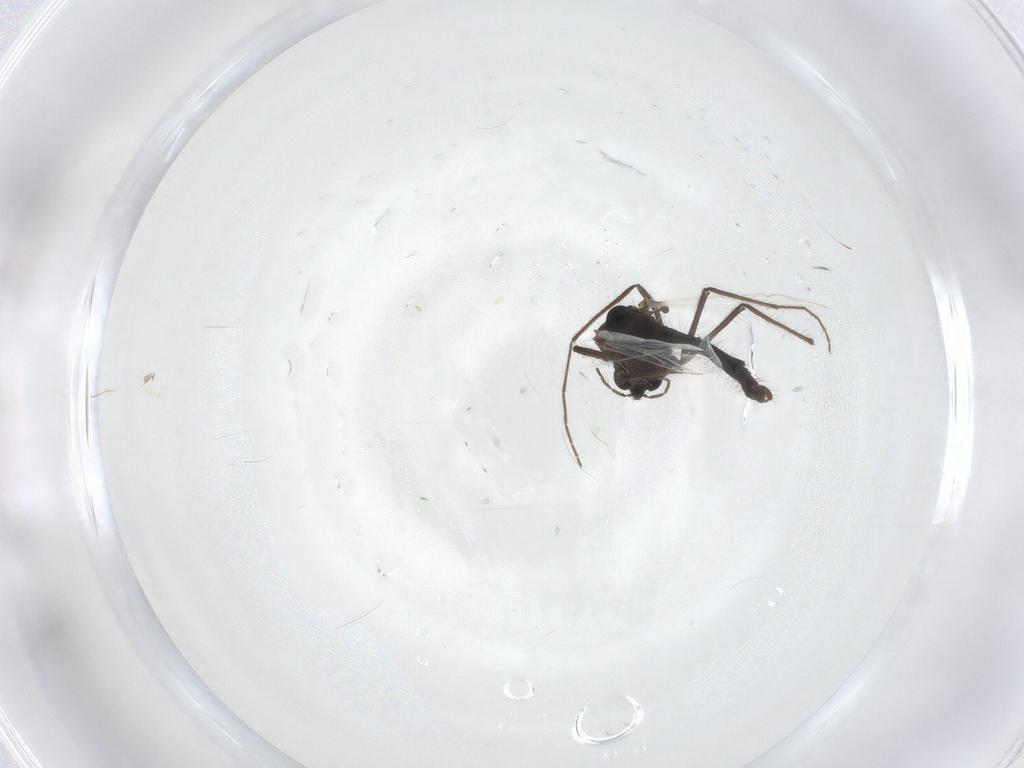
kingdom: Animalia
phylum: Arthropoda
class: Insecta
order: Diptera
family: Chironomidae
